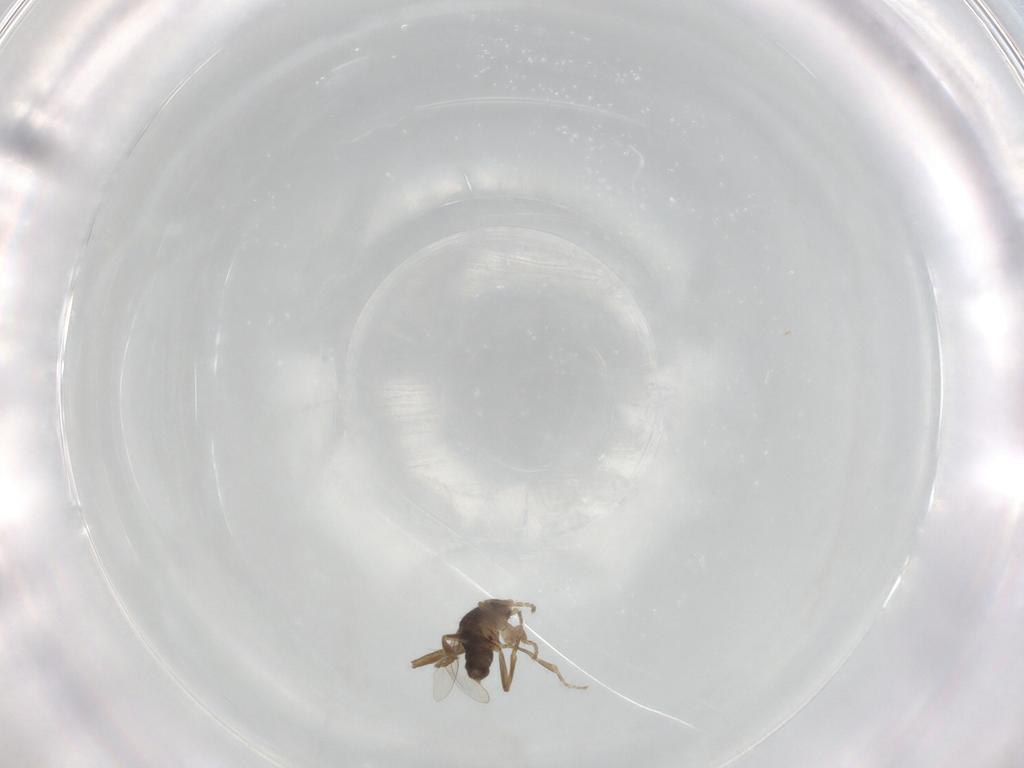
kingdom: Animalia
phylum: Arthropoda
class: Insecta
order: Diptera
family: Phoridae
